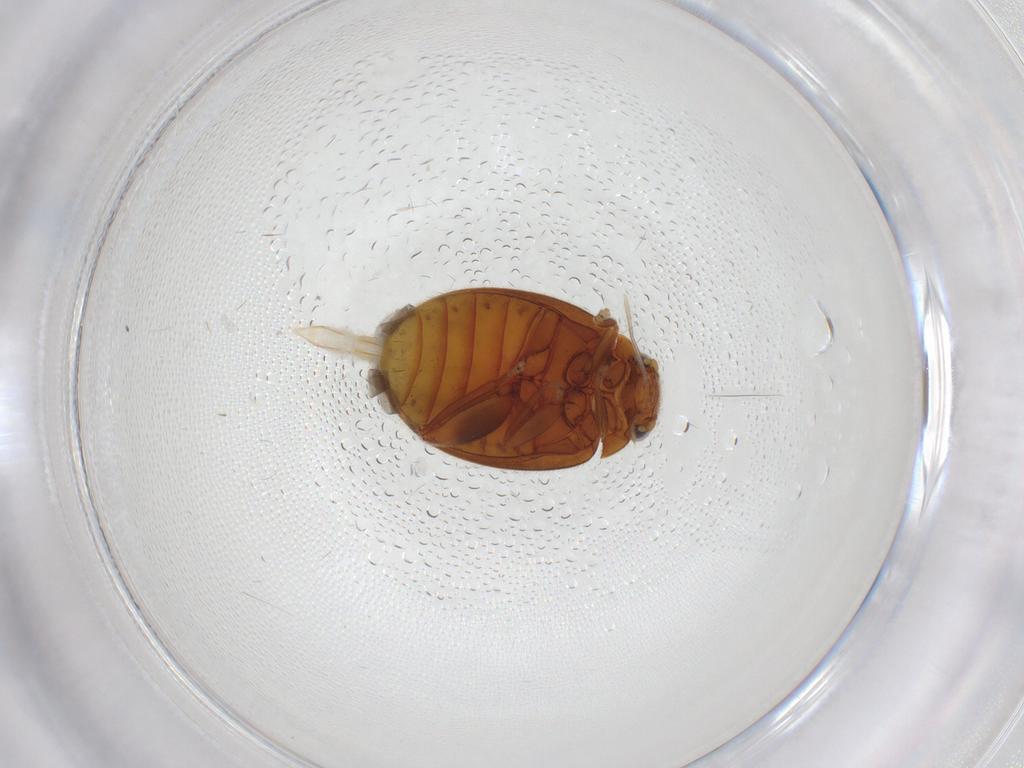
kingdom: Animalia
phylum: Arthropoda
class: Insecta
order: Coleoptera
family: Scirtidae
